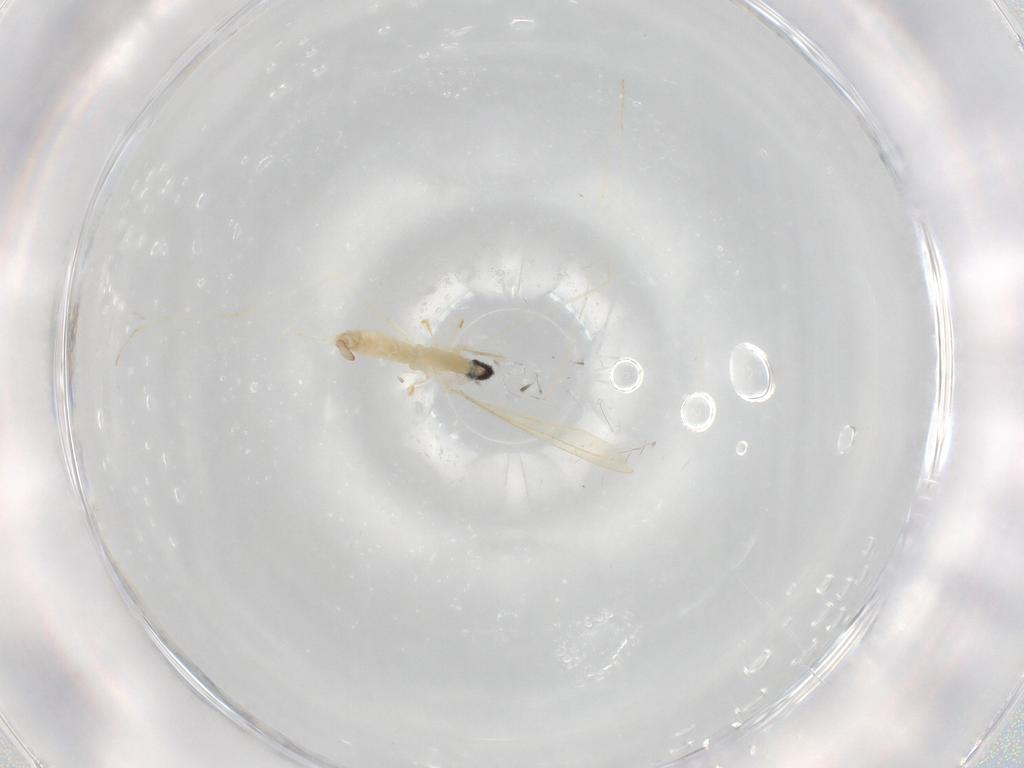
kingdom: Animalia
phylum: Arthropoda
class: Insecta
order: Diptera
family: Cecidomyiidae
